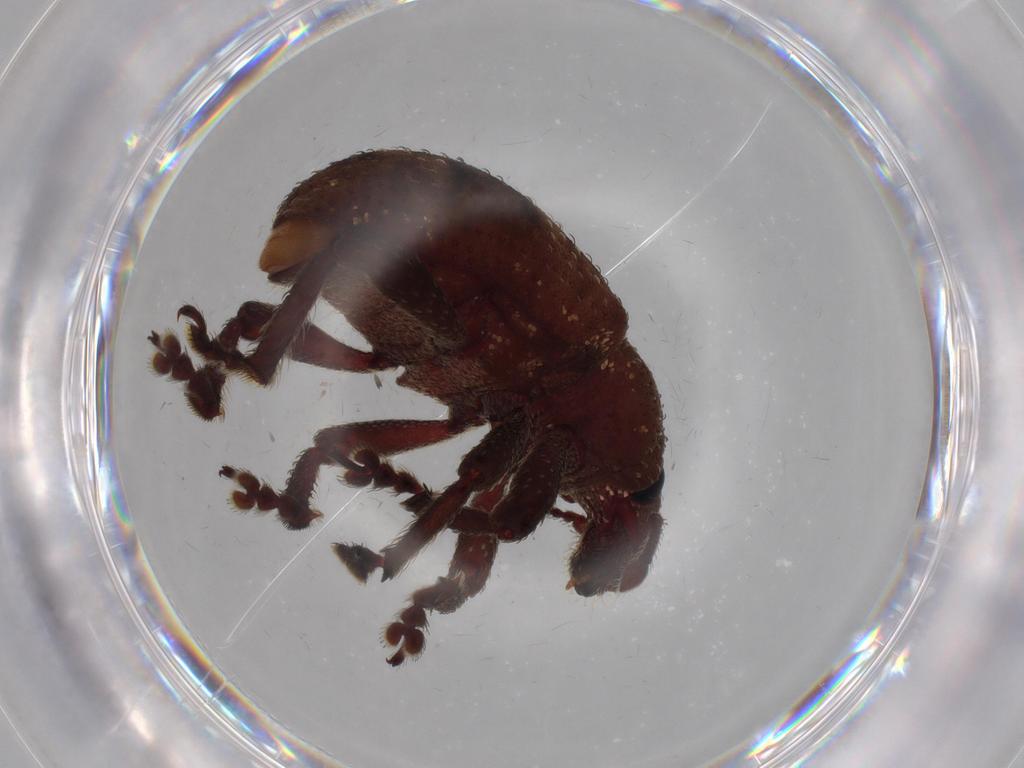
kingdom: Animalia
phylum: Arthropoda
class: Insecta
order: Coleoptera
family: Curculionidae
